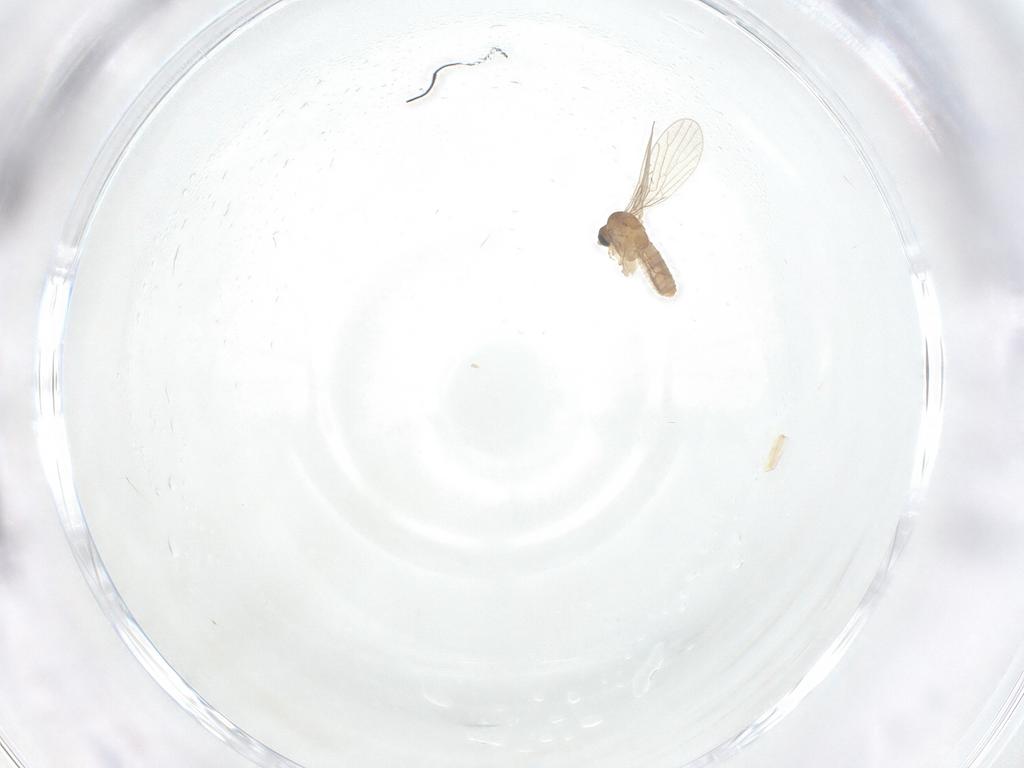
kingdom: Animalia
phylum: Arthropoda
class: Insecta
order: Diptera
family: Psychodidae
